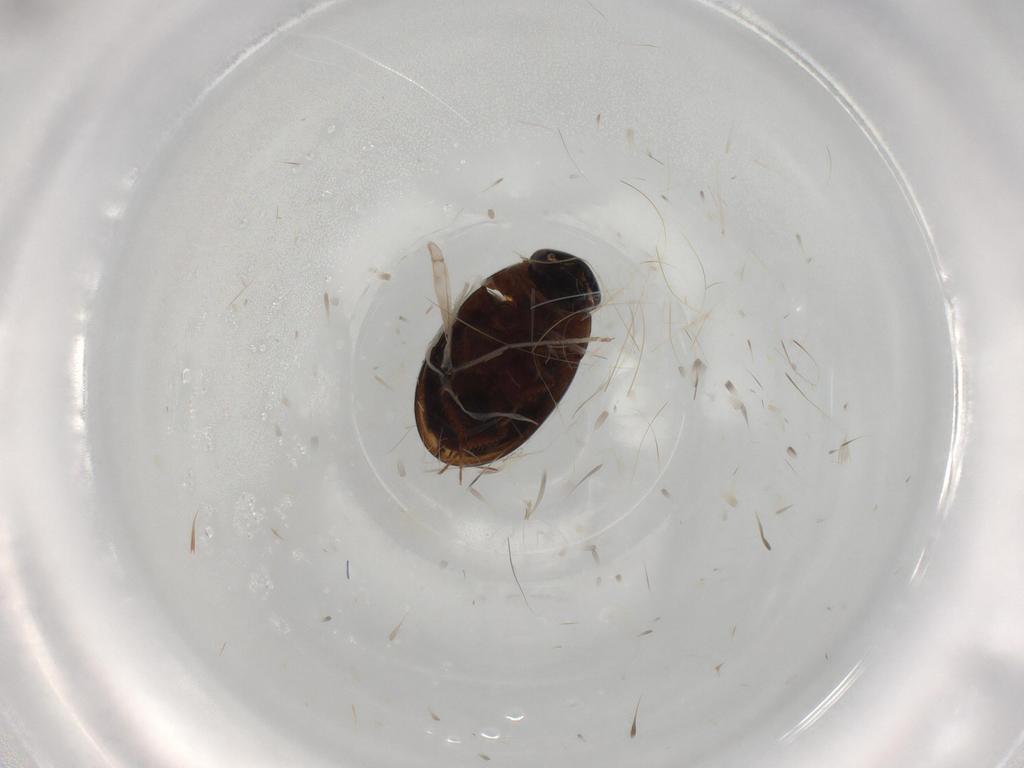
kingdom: Animalia
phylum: Arthropoda
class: Insecta
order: Coleoptera
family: Hydrophilidae
